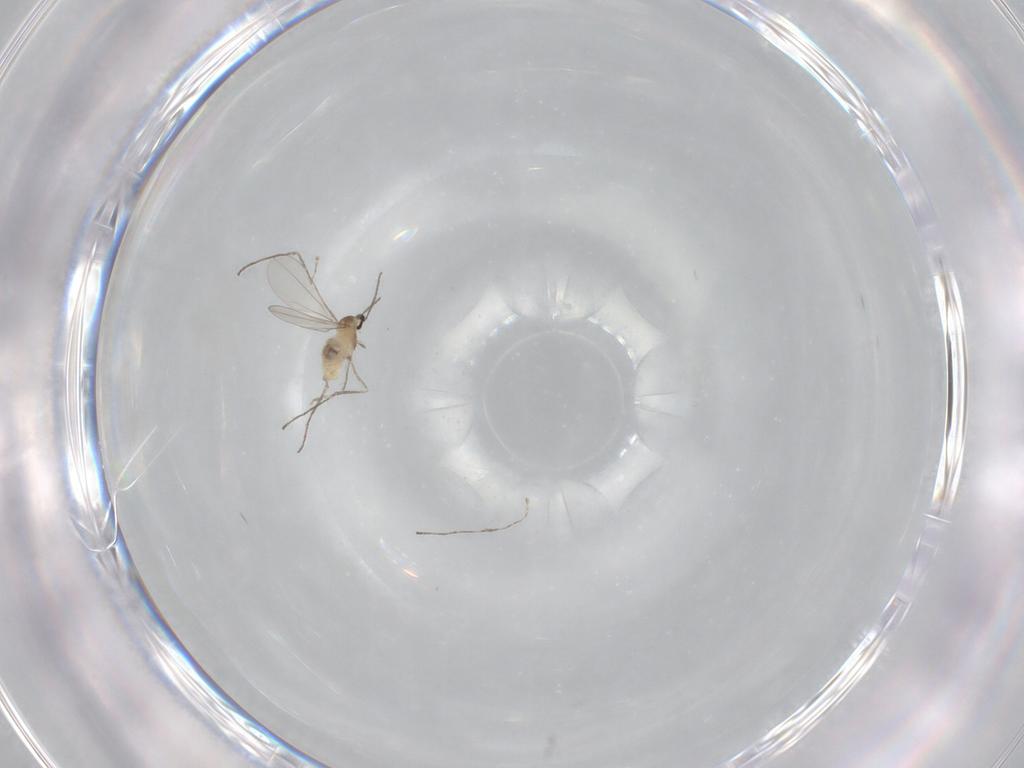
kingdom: Animalia
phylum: Arthropoda
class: Insecta
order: Diptera
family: Cecidomyiidae
